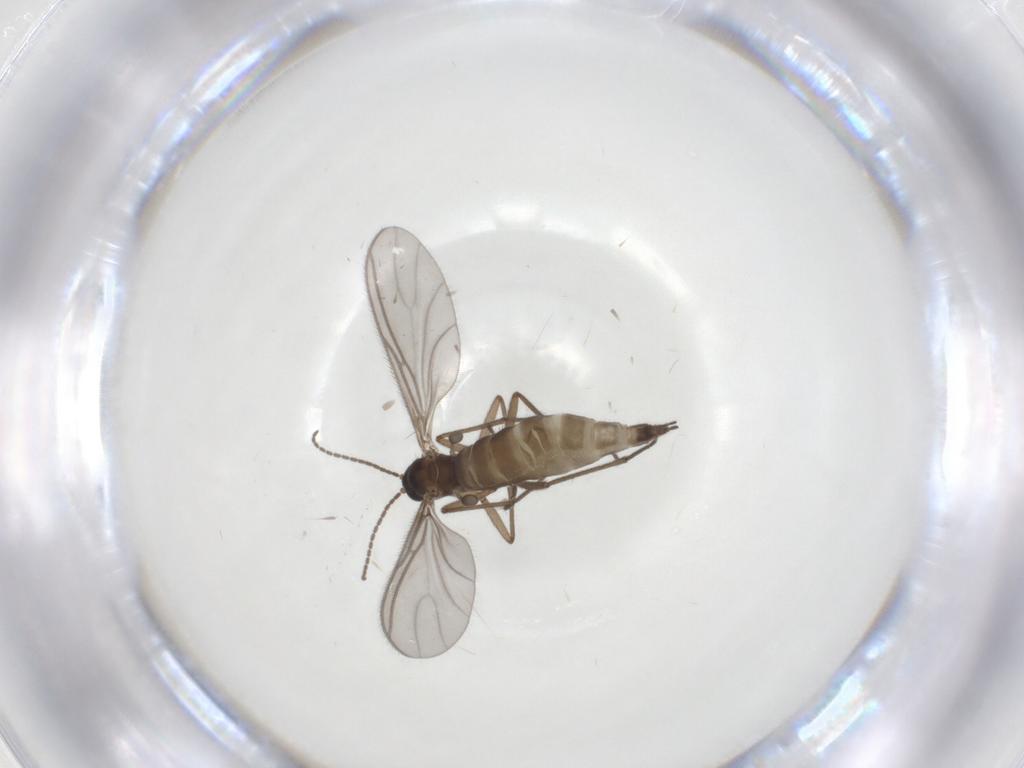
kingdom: Animalia
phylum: Arthropoda
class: Insecta
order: Diptera
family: Sciaridae
